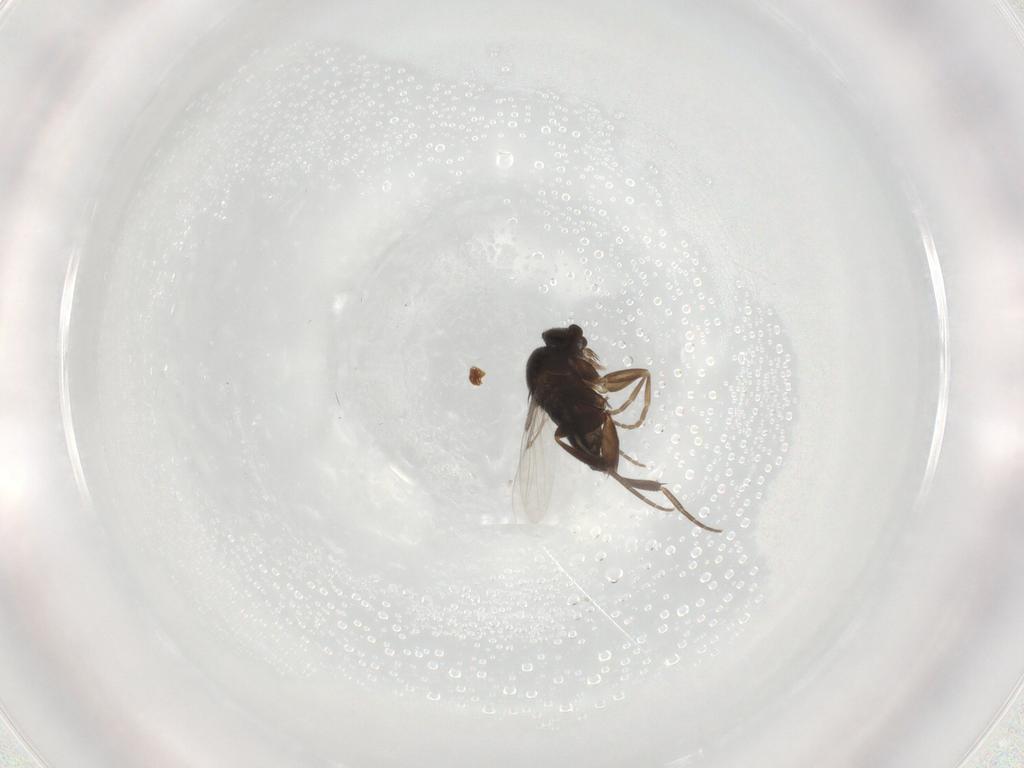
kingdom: Animalia
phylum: Arthropoda
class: Insecta
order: Diptera
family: Phoridae
